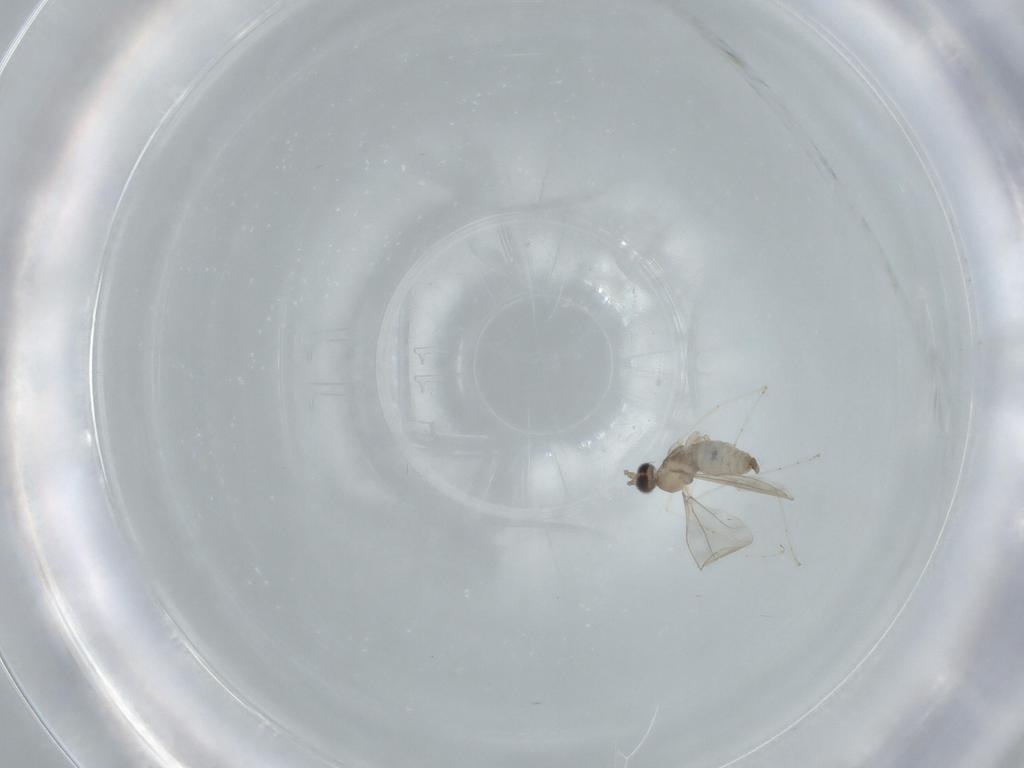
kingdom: Animalia
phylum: Arthropoda
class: Insecta
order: Diptera
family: Cecidomyiidae
